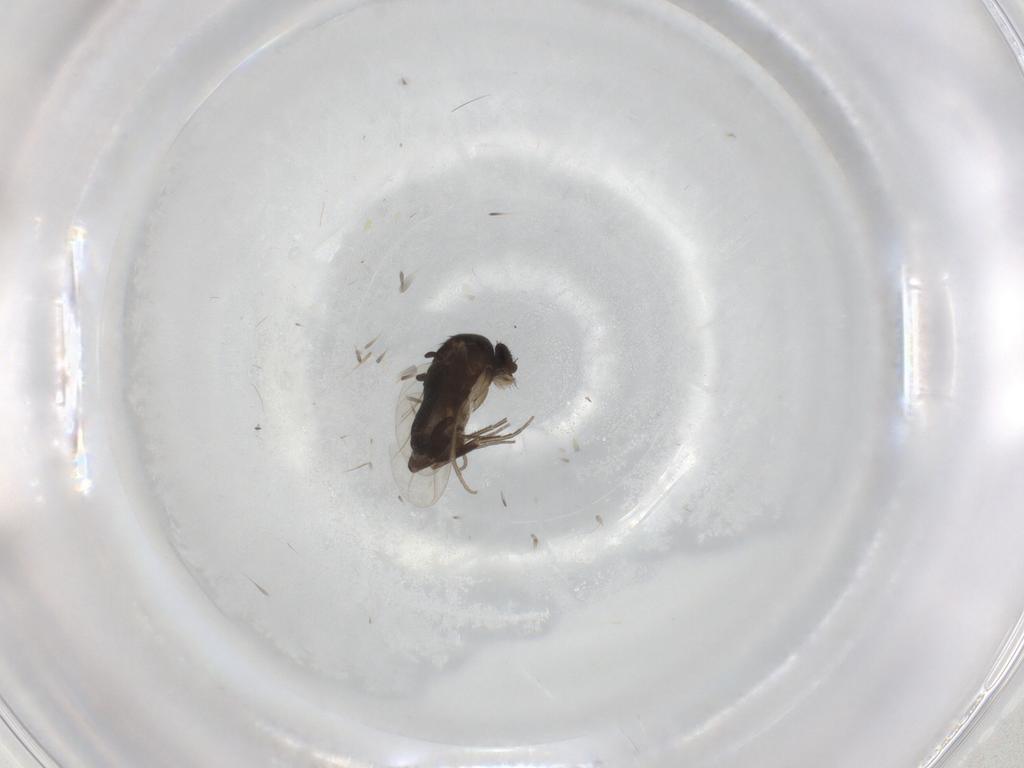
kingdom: Animalia
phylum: Arthropoda
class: Insecta
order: Diptera
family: Phoridae
